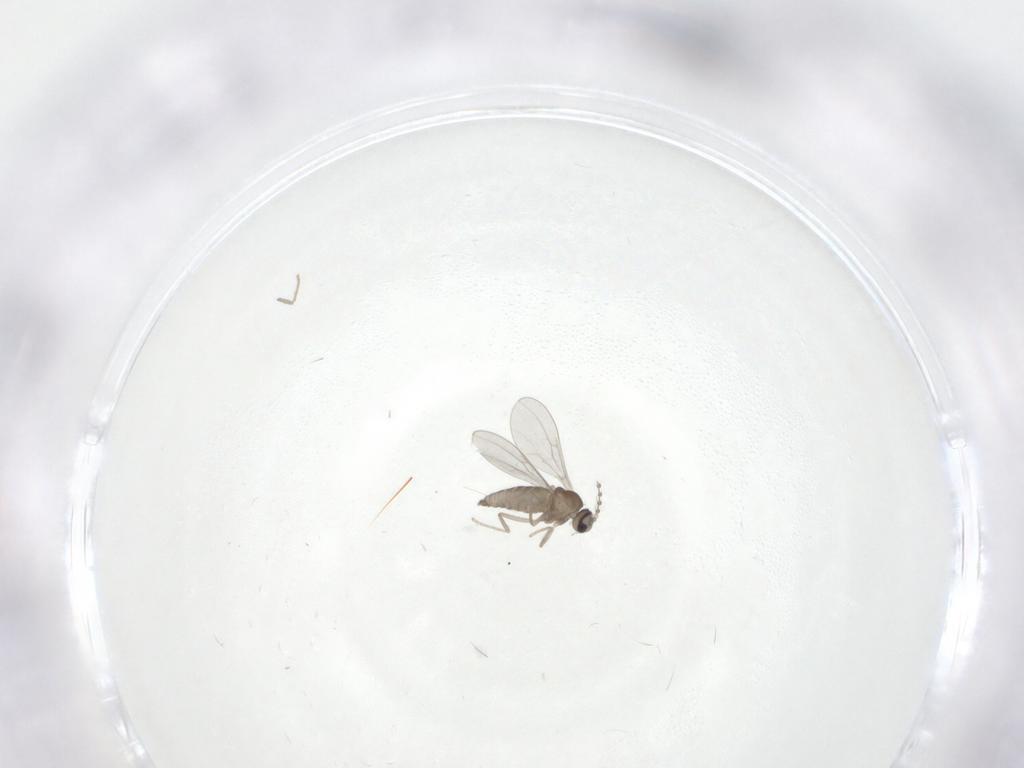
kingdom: Animalia
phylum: Arthropoda
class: Insecta
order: Diptera
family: Cecidomyiidae
